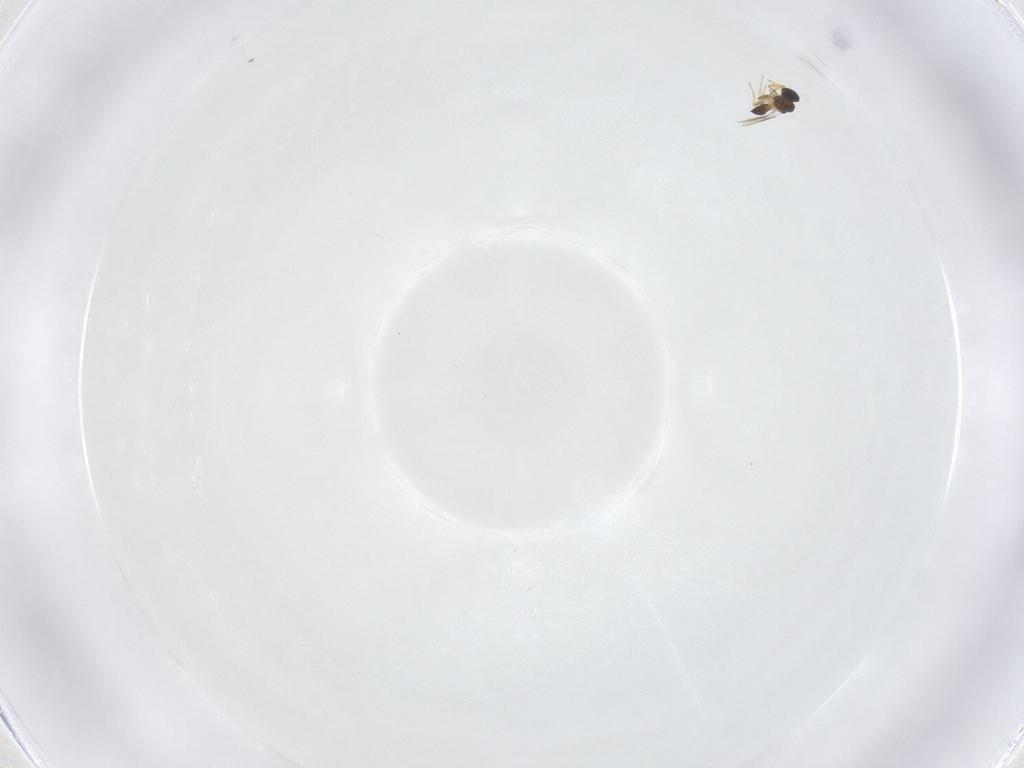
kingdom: Animalia
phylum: Arthropoda
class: Insecta
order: Hymenoptera
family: Platygastridae
